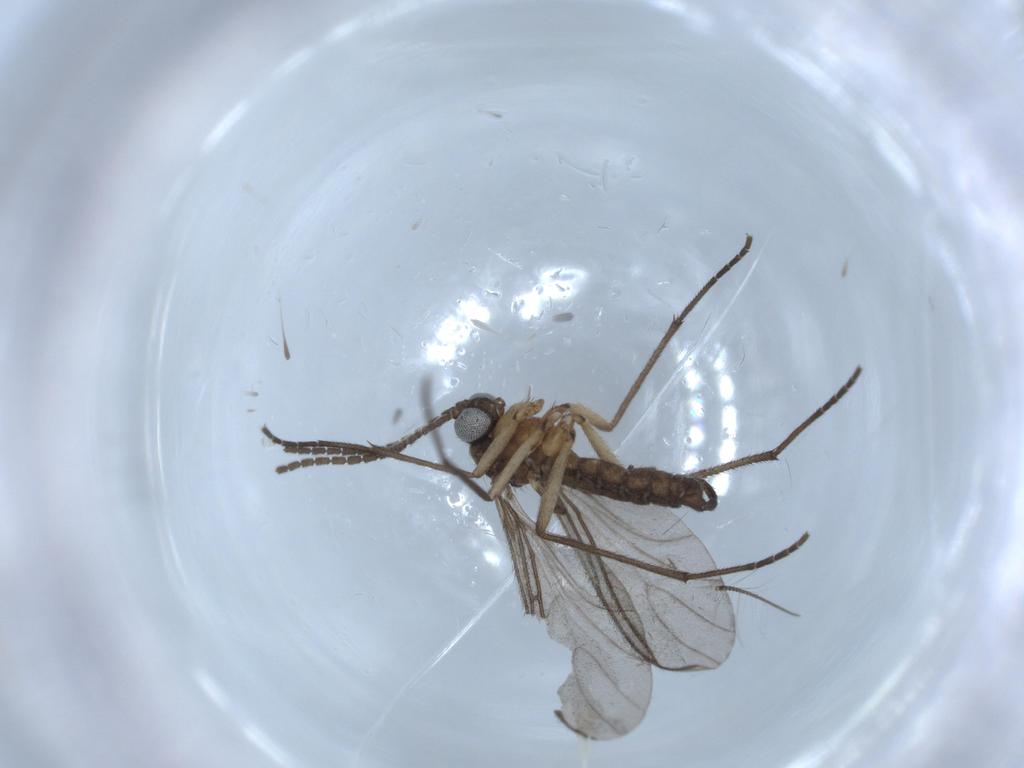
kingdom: Animalia
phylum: Arthropoda
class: Insecta
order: Diptera
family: Sciaridae
